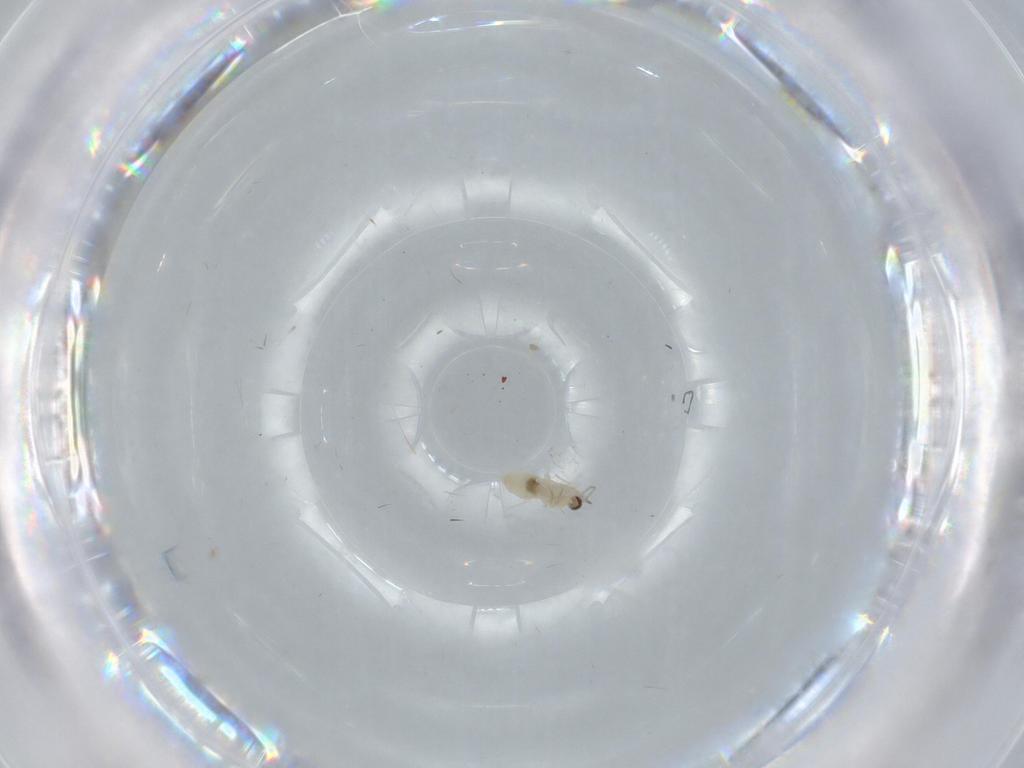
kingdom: Animalia
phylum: Arthropoda
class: Insecta
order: Diptera
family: Cecidomyiidae
